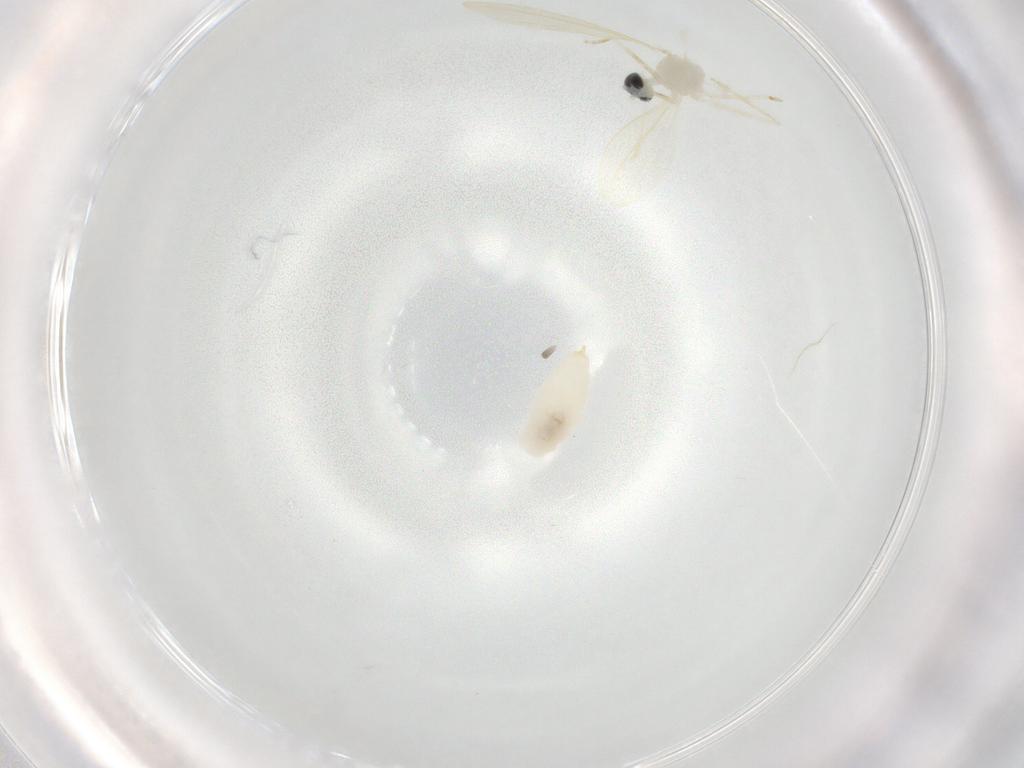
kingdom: Animalia
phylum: Arthropoda
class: Insecta
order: Diptera
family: Cecidomyiidae
